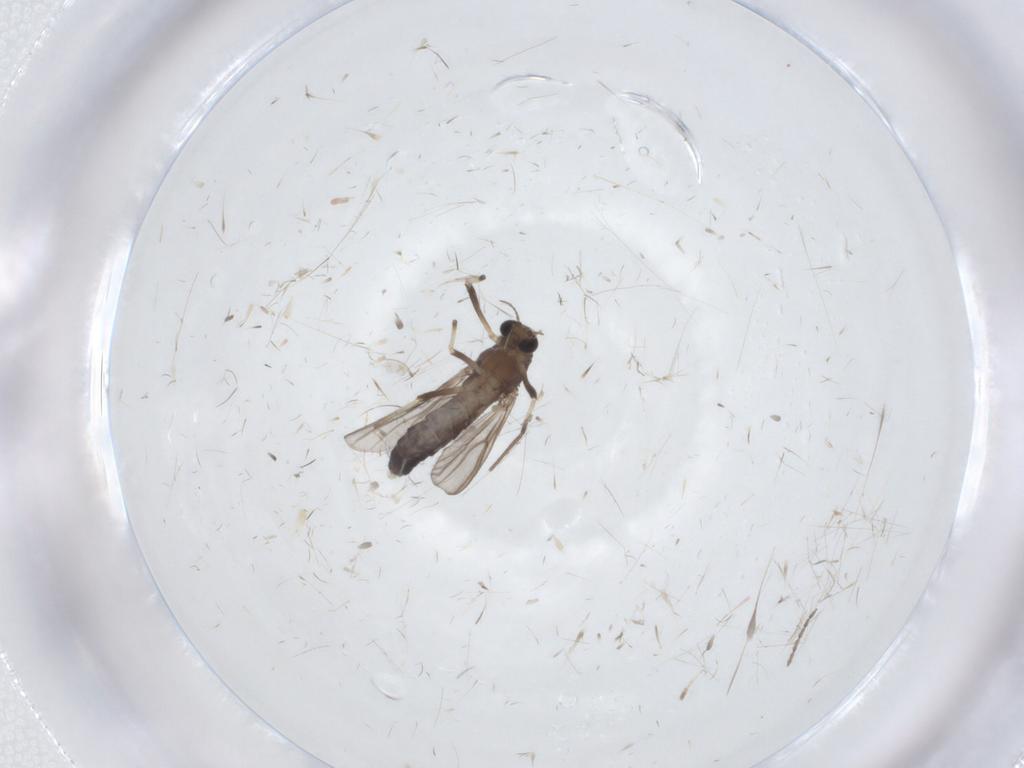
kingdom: Animalia
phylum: Arthropoda
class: Insecta
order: Diptera
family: Chironomidae
